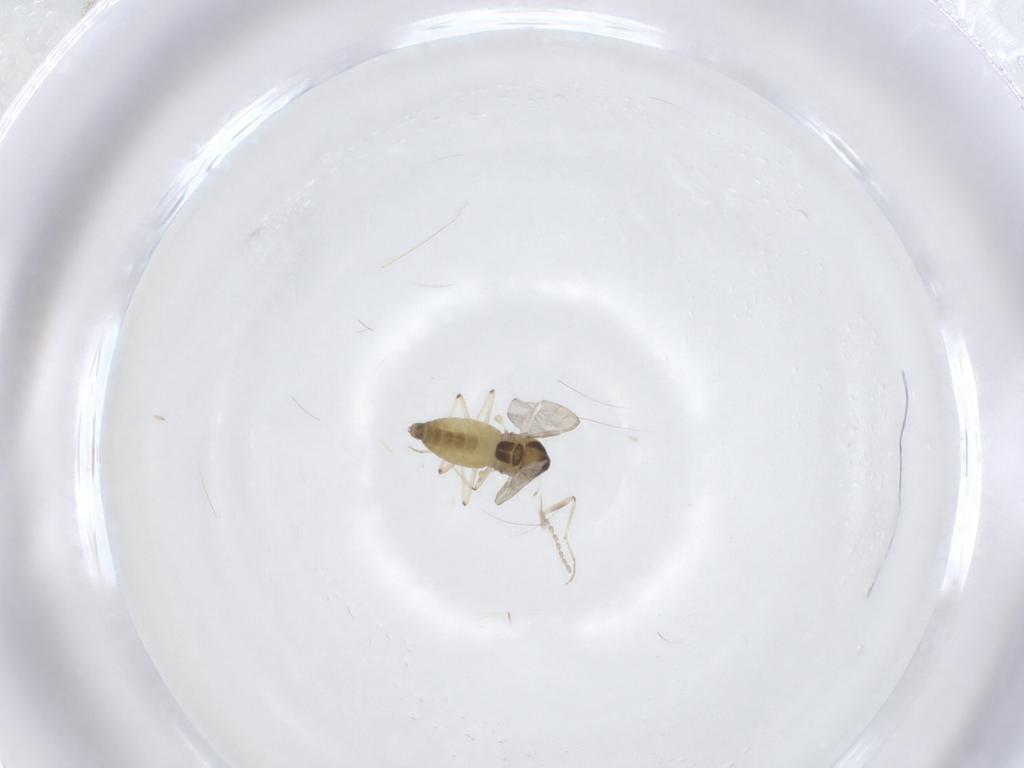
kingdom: Animalia
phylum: Arthropoda
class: Insecta
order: Diptera
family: Chironomidae
